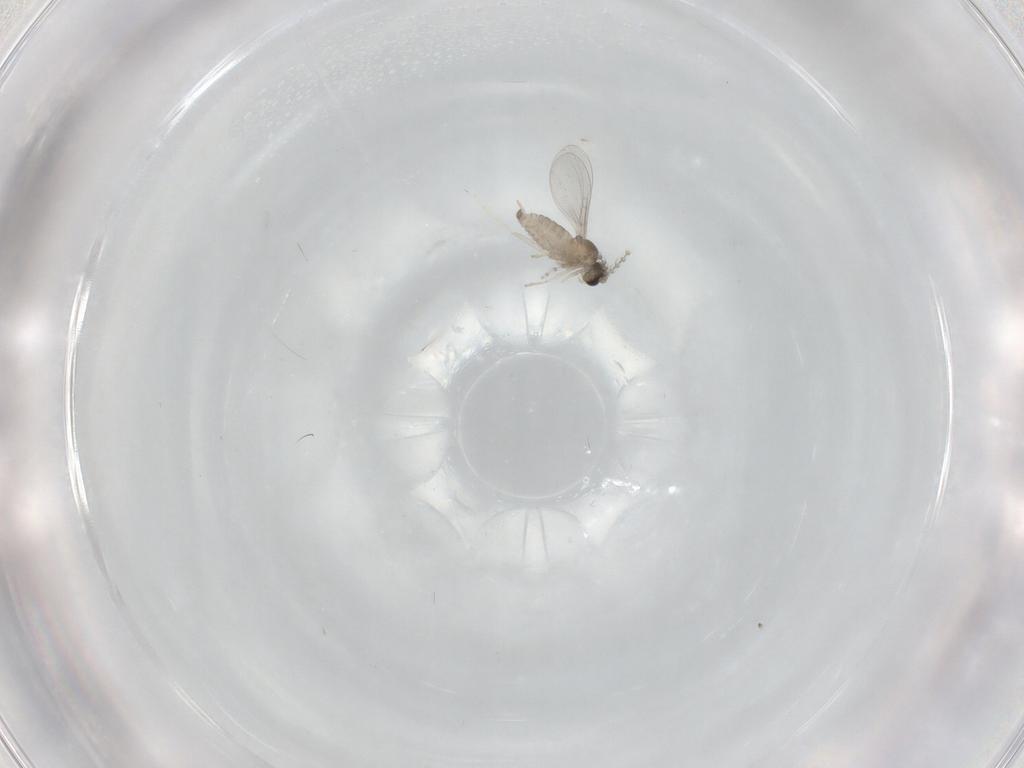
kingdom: Animalia
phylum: Arthropoda
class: Insecta
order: Diptera
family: Cecidomyiidae
